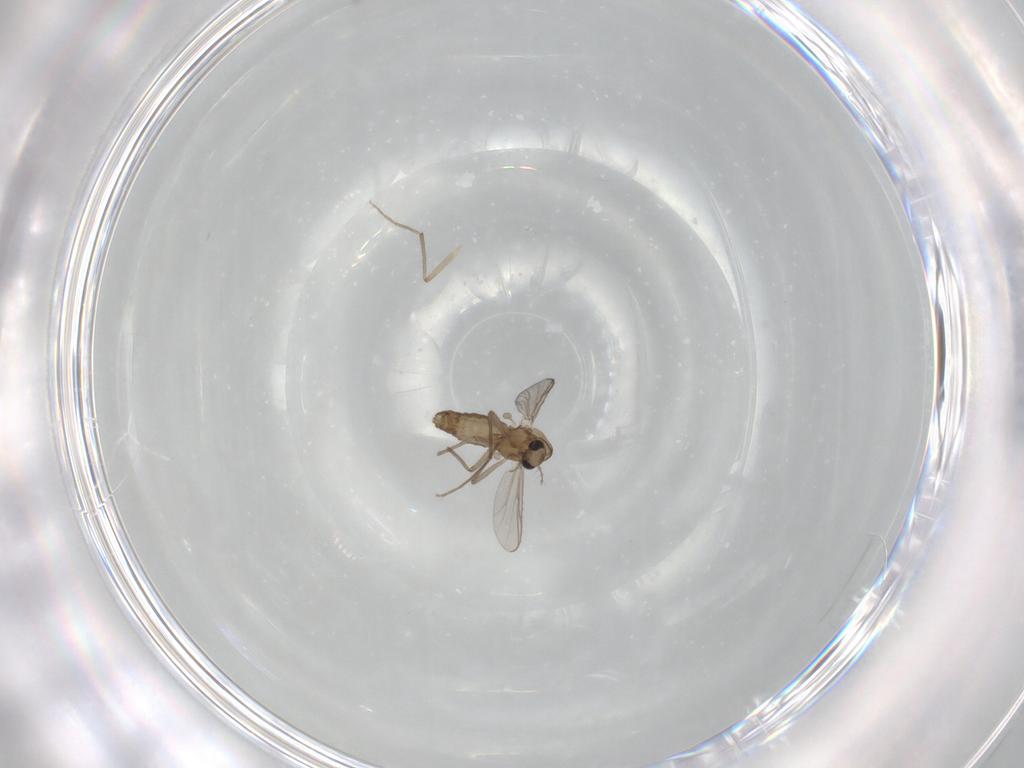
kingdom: Animalia
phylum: Arthropoda
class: Insecta
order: Diptera
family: Chironomidae
